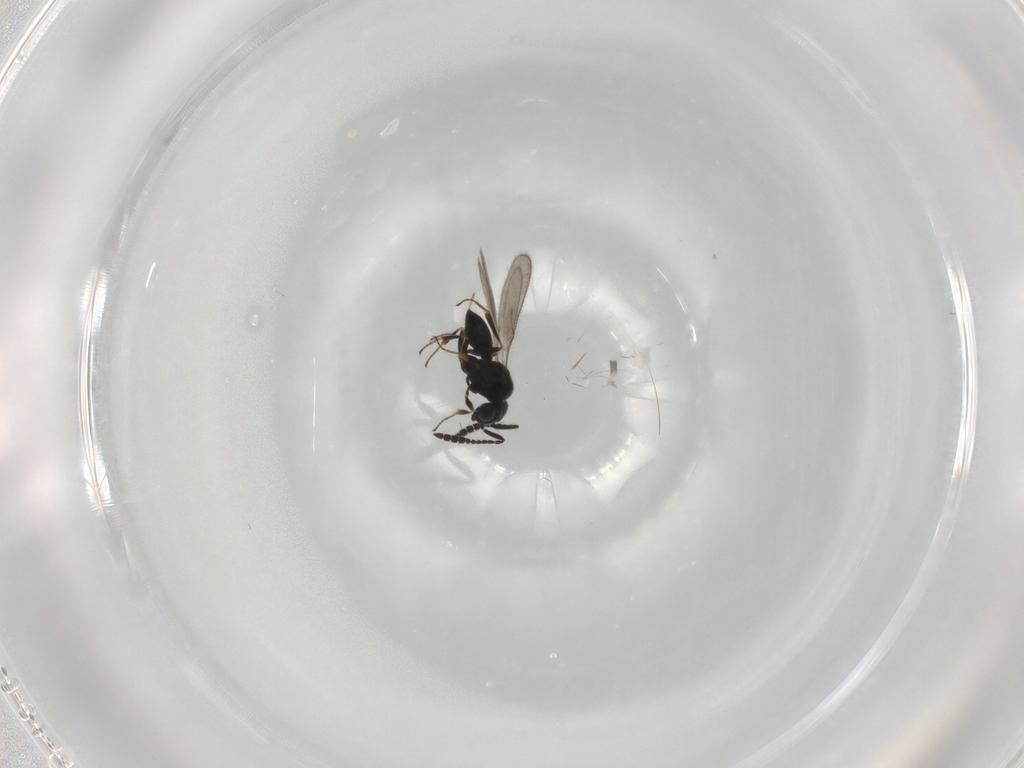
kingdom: Animalia
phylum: Arthropoda
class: Insecta
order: Hymenoptera
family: Scelionidae
